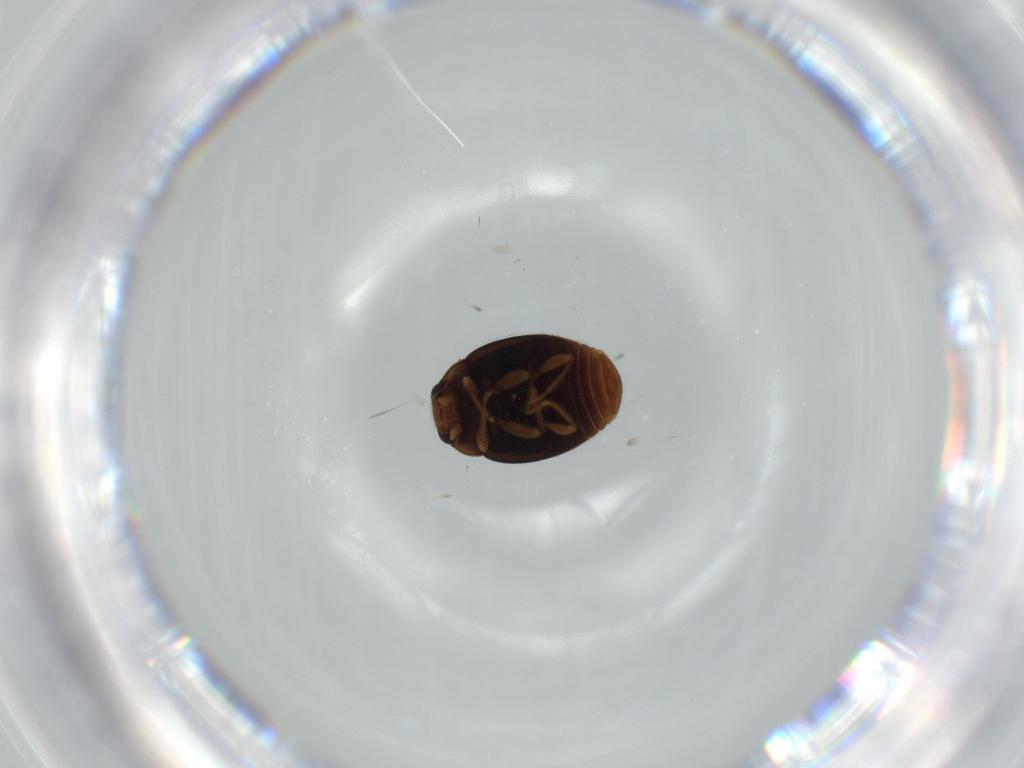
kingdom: Animalia
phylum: Arthropoda
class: Insecta
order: Coleoptera
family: Coccinellidae
